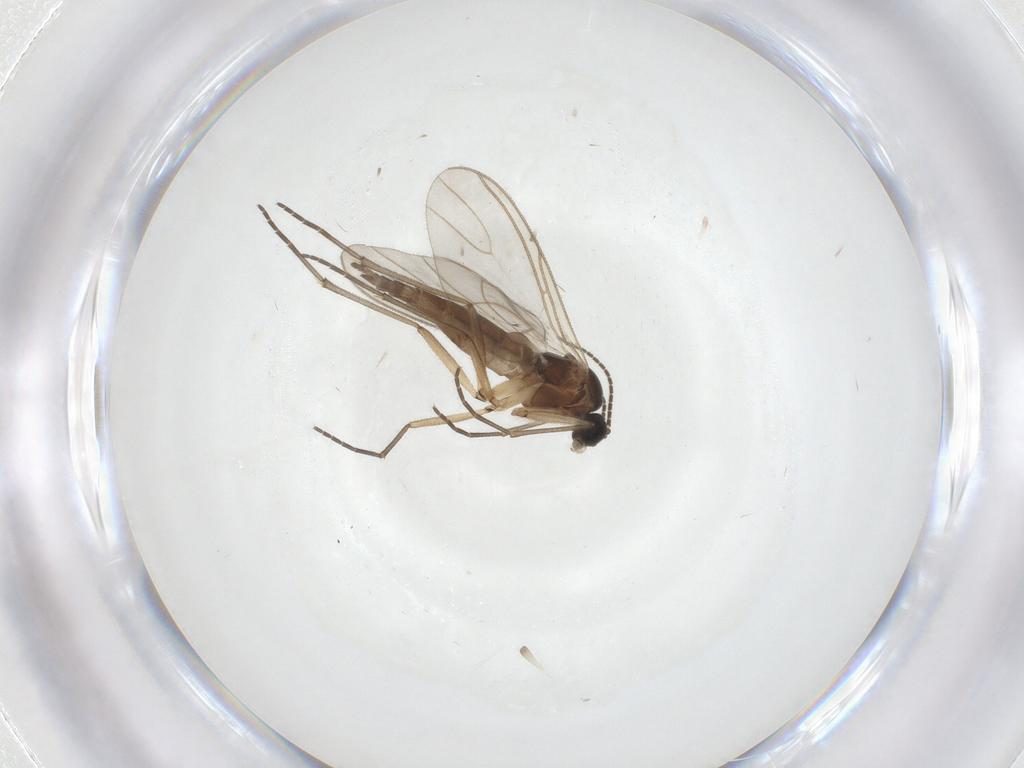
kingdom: Animalia
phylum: Arthropoda
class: Insecta
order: Diptera
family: Sciaridae
